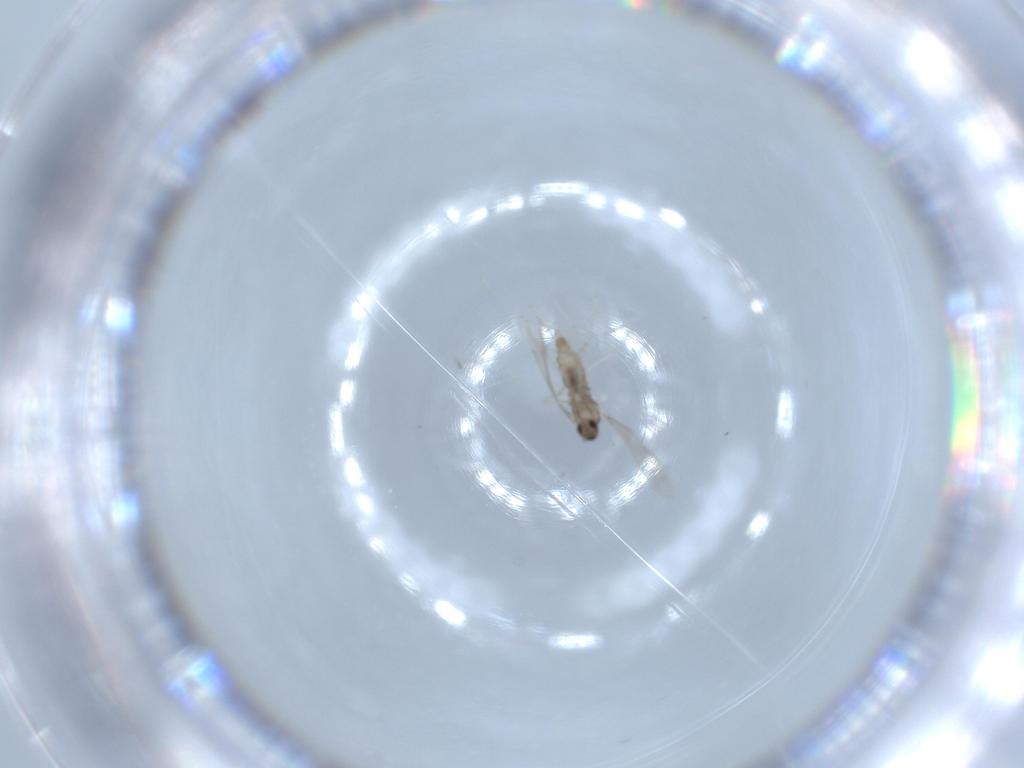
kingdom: Animalia
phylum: Arthropoda
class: Insecta
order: Diptera
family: Cecidomyiidae
